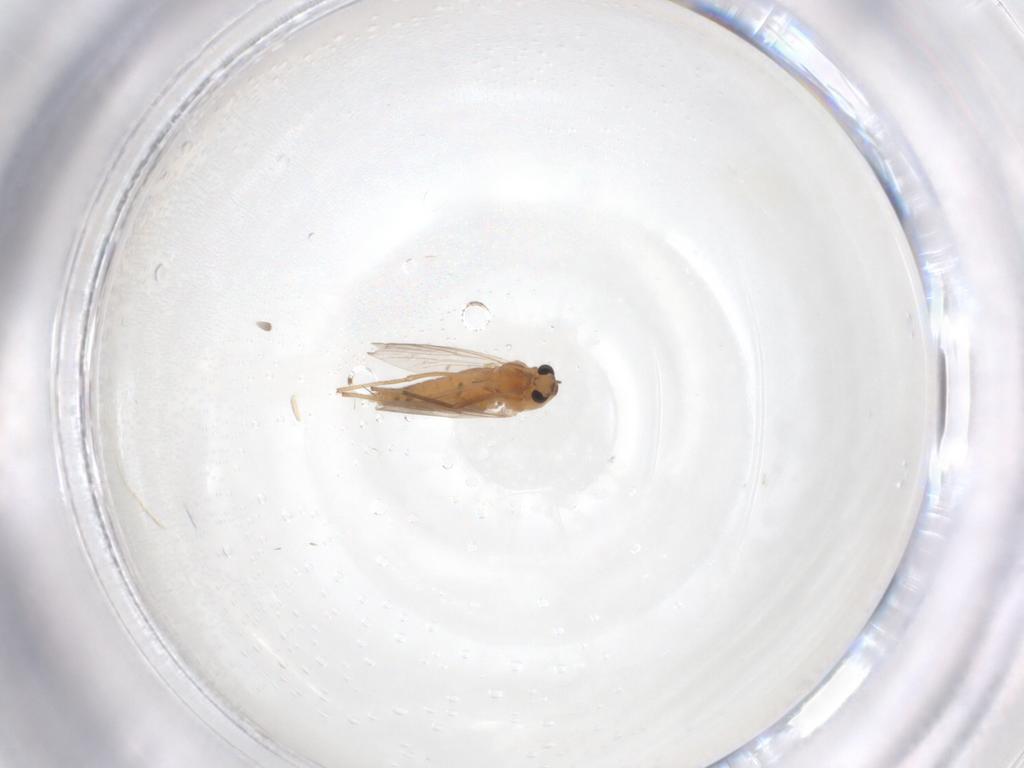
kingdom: Animalia
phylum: Arthropoda
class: Insecta
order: Diptera
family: Chironomidae
